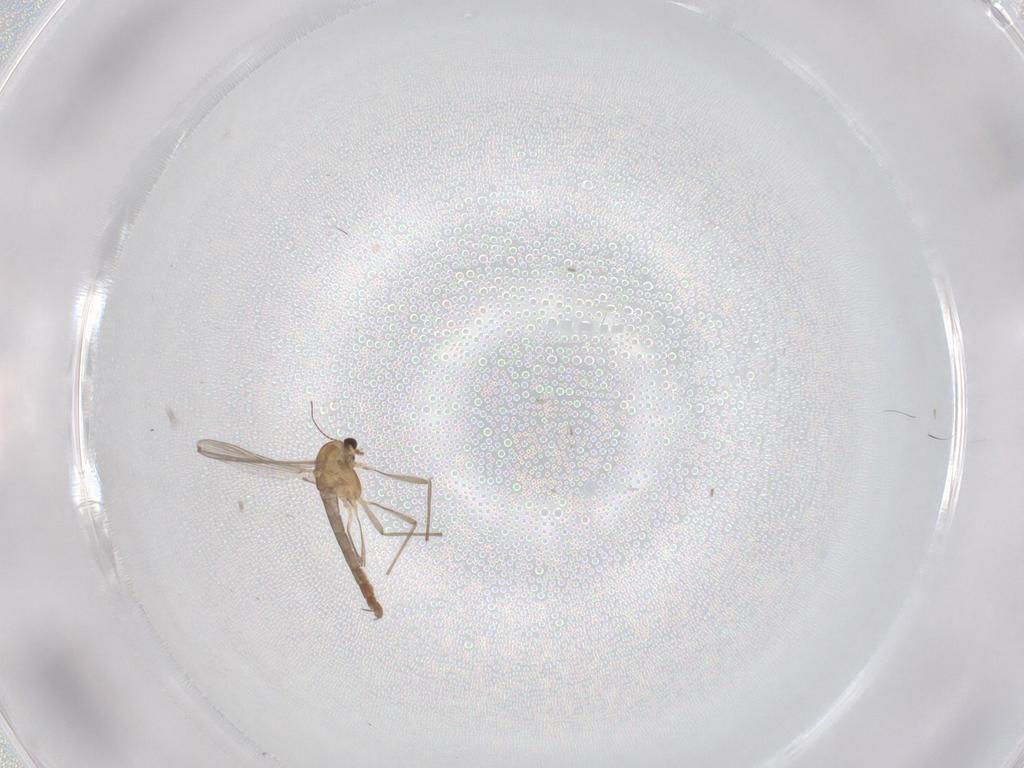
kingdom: Animalia
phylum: Arthropoda
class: Insecta
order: Diptera
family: Chironomidae
